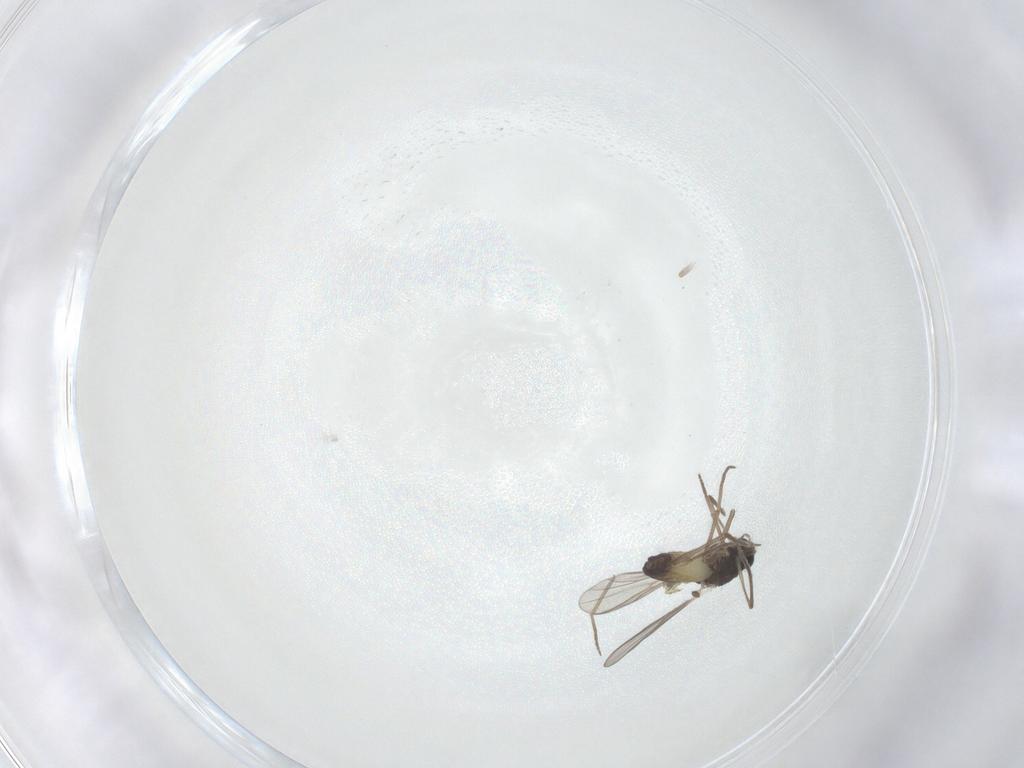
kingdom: Animalia
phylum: Arthropoda
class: Insecta
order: Diptera
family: Chironomidae
